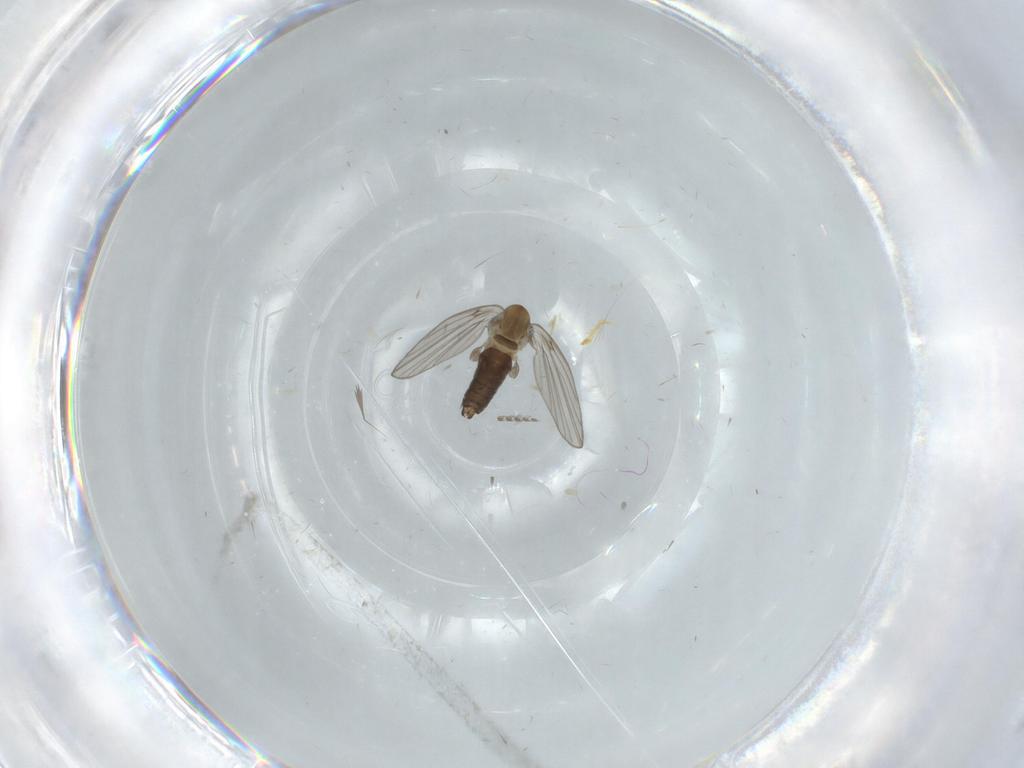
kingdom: Animalia
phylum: Arthropoda
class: Insecta
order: Diptera
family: Psychodidae
